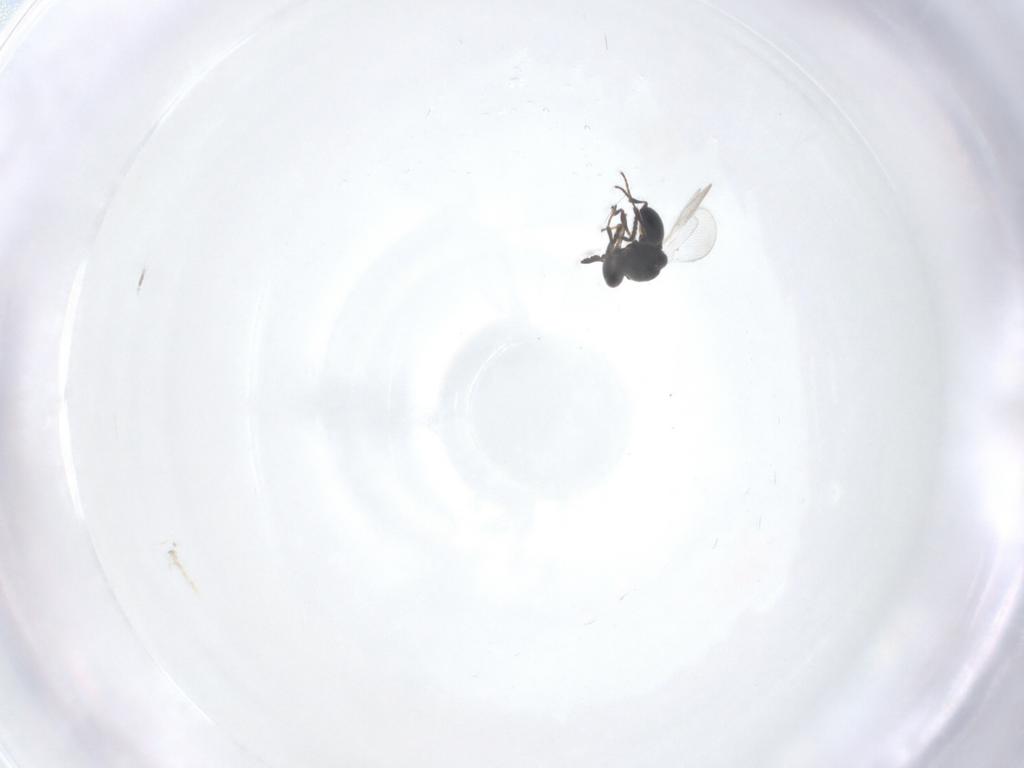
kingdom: Animalia
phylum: Arthropoda
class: Insecta
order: Hymenoptera
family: Platygastridae
